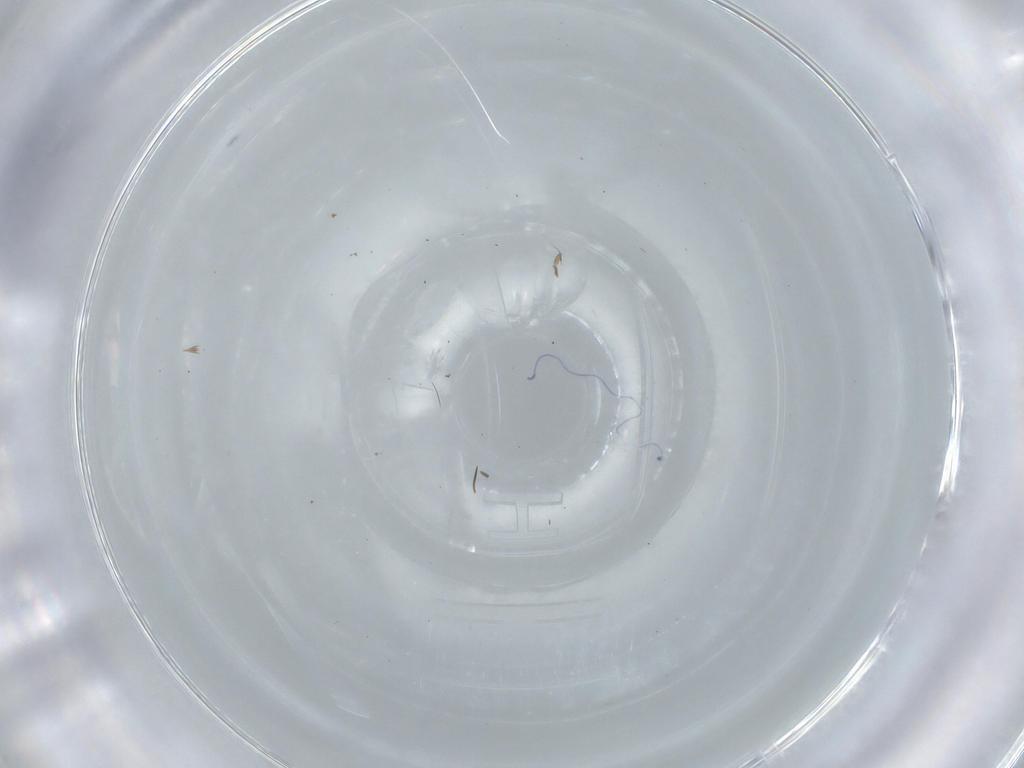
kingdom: Animalia
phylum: Arthropoda
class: Insecta
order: Diptera
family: Cecidomyiidae
